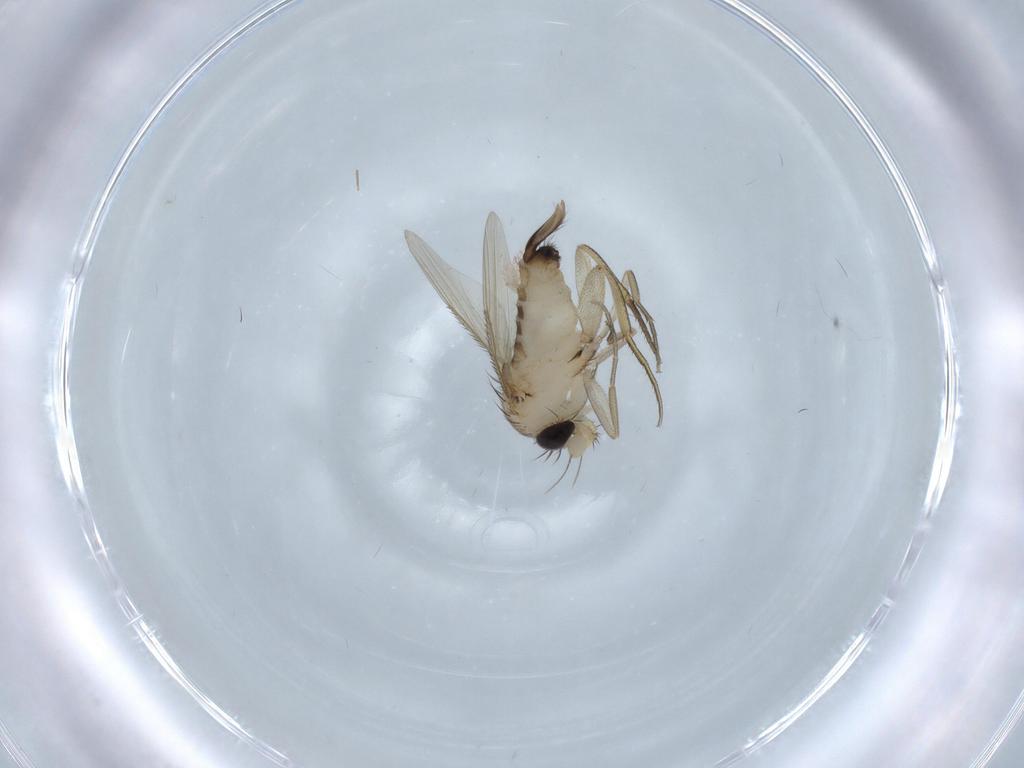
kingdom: Animalia
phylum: Arthropoda
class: Insecta
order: Diptera
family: Phoridae
